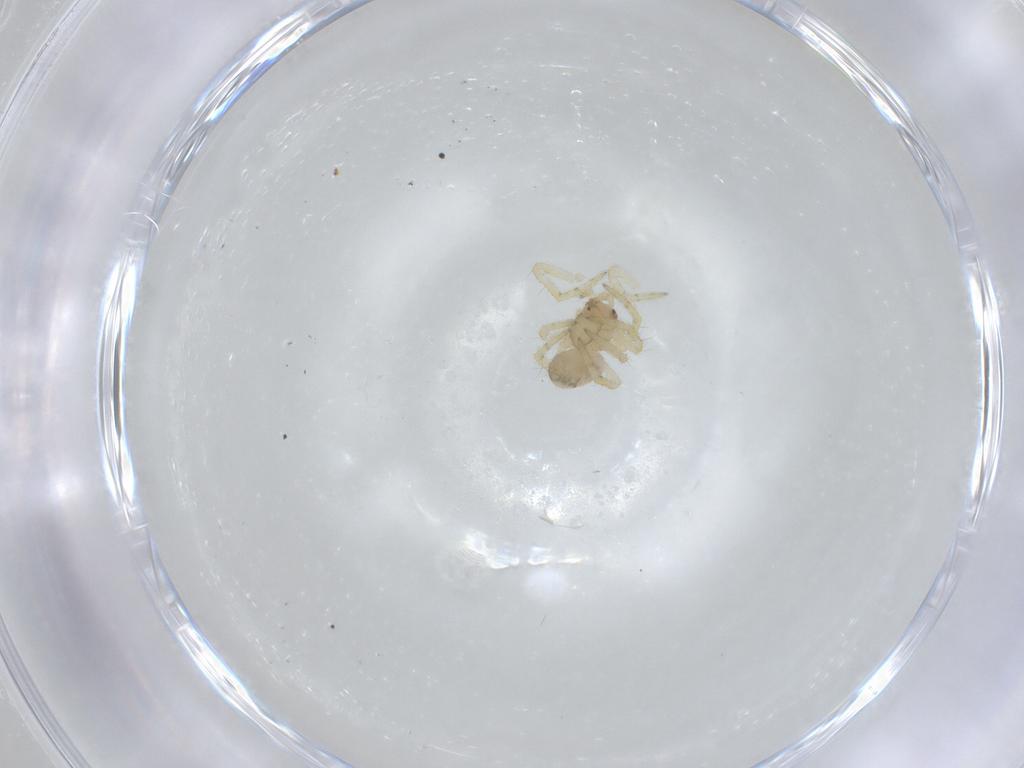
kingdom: Animalia
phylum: Arthropoda
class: Arachnida
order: Araneae
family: Theridiidae
